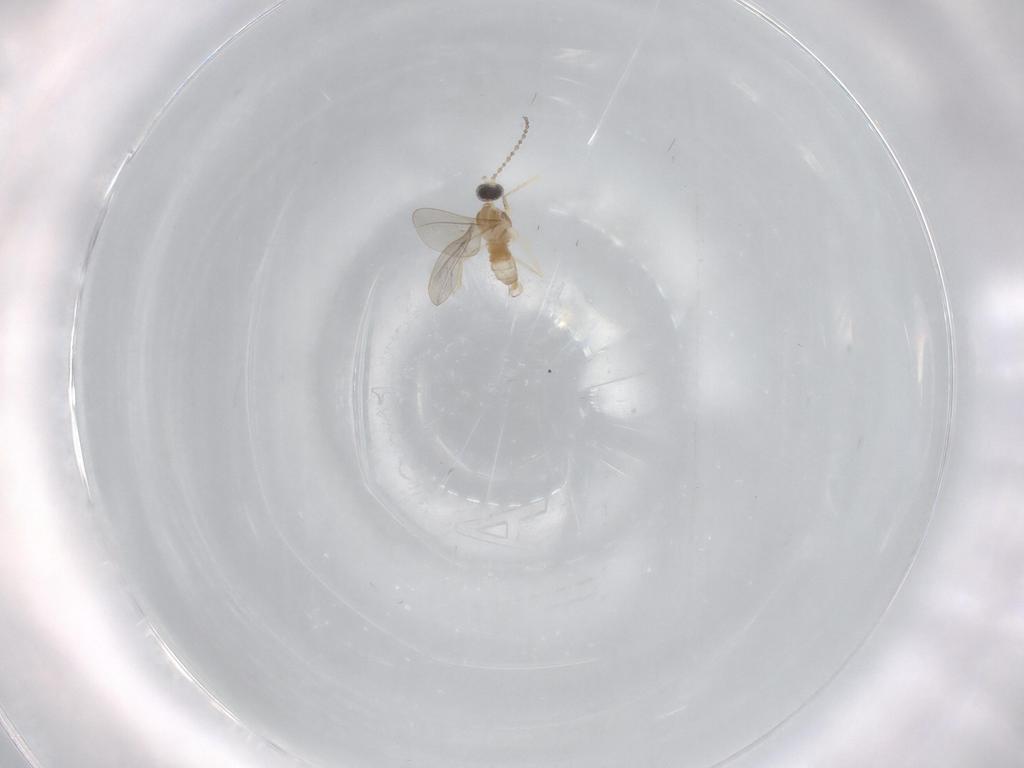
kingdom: Animalia
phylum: Arthropoda
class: Insecta
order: Diptera
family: Cecidomyiidae
